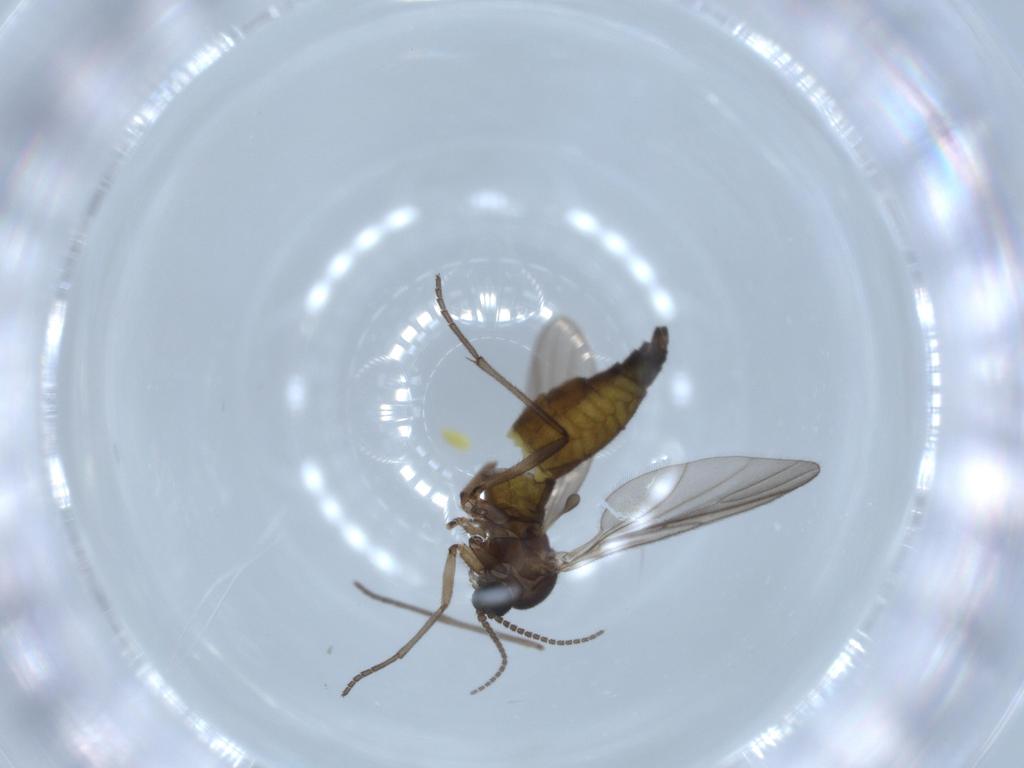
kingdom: Animalia
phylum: Arthropoda
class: Insecta
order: Diptera
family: Sciaridae
